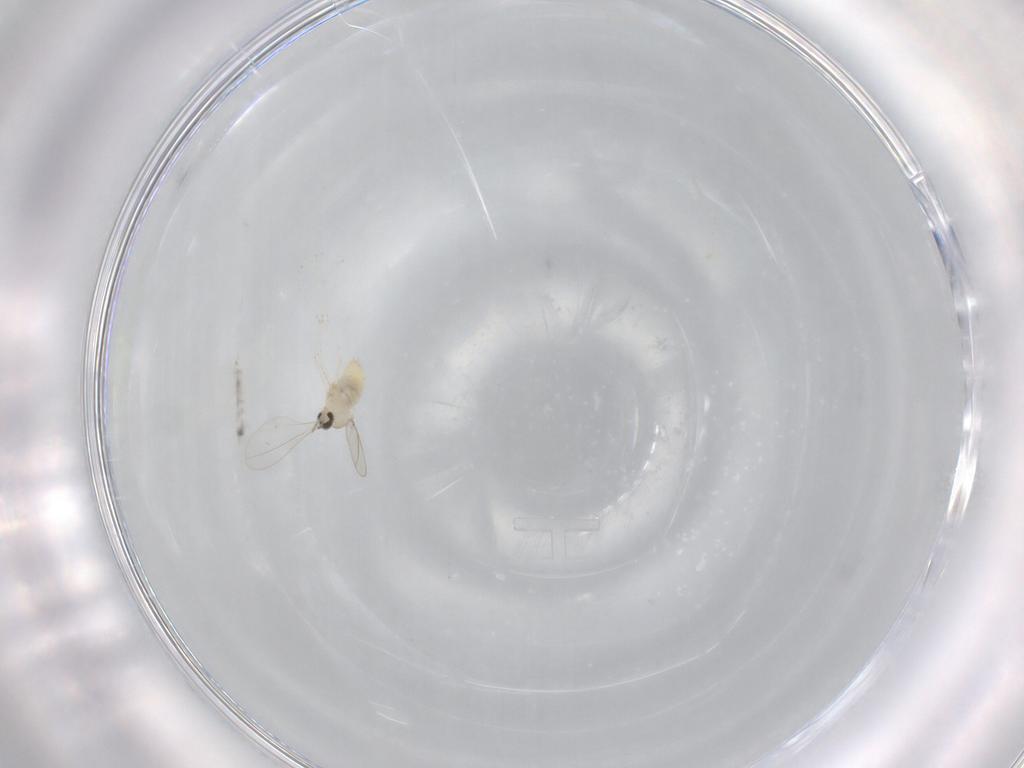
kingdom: Animalia
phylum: Arthropoda
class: Insecta
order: Diptera
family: Cecidomyiidae
